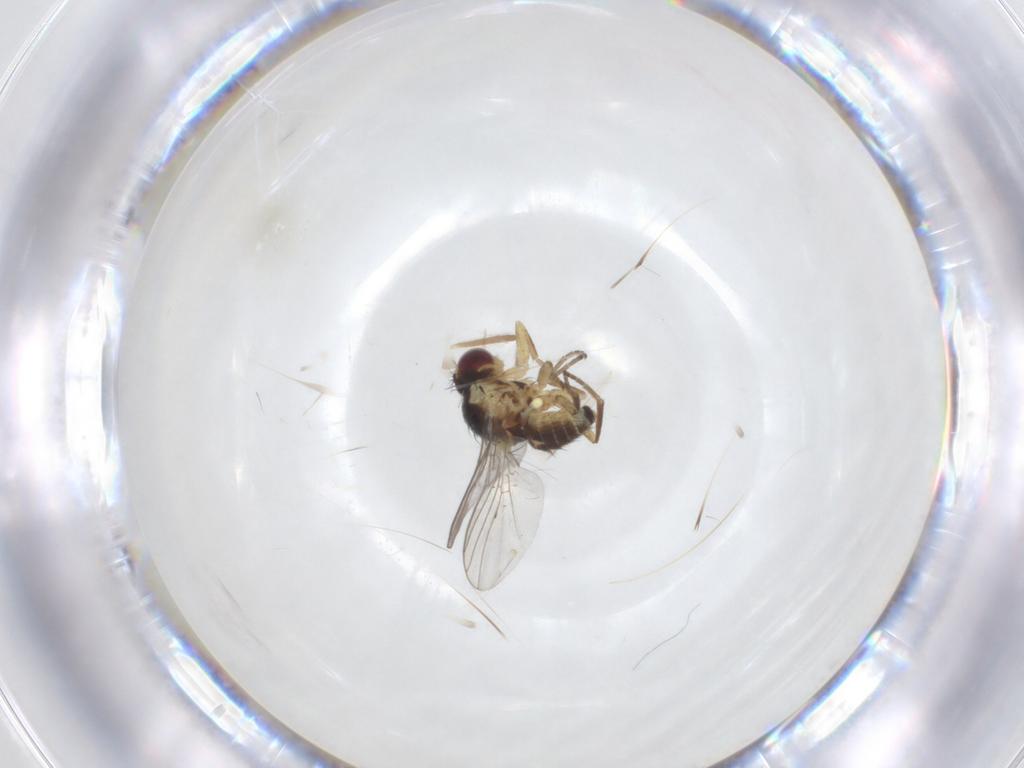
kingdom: Animalia
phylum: Arthropoda
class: Insecta
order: Diptera
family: Agromyzidae
